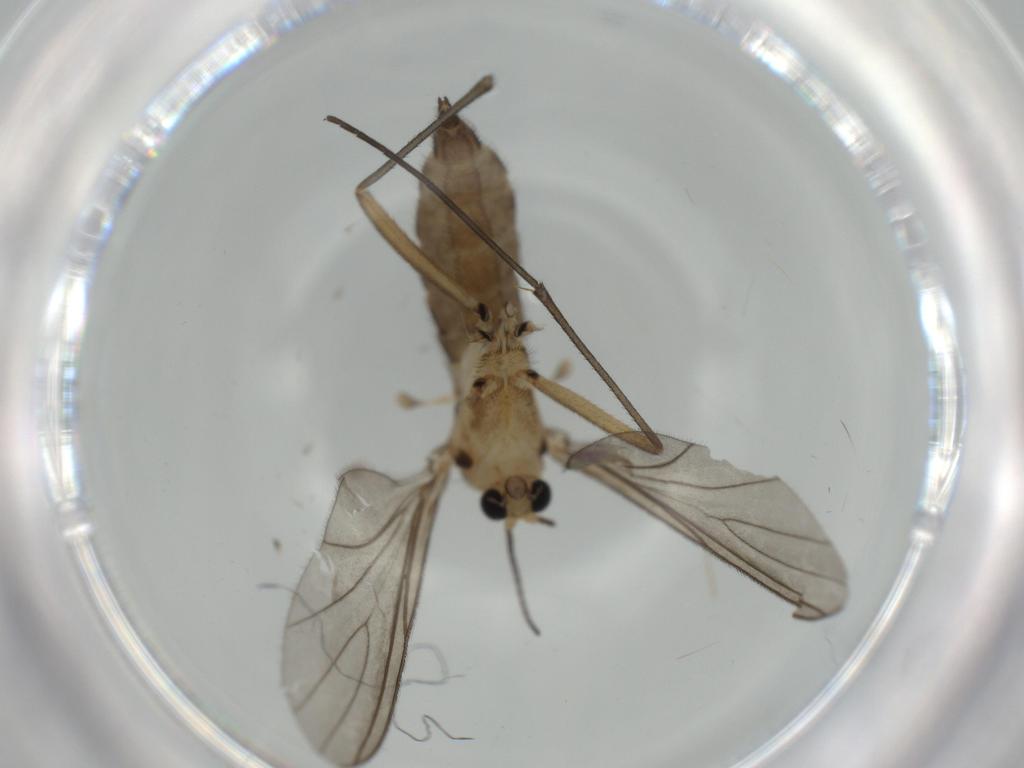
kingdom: Animalia
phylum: Arthropoda
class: Insecta
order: Diptera
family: Sciaridae
